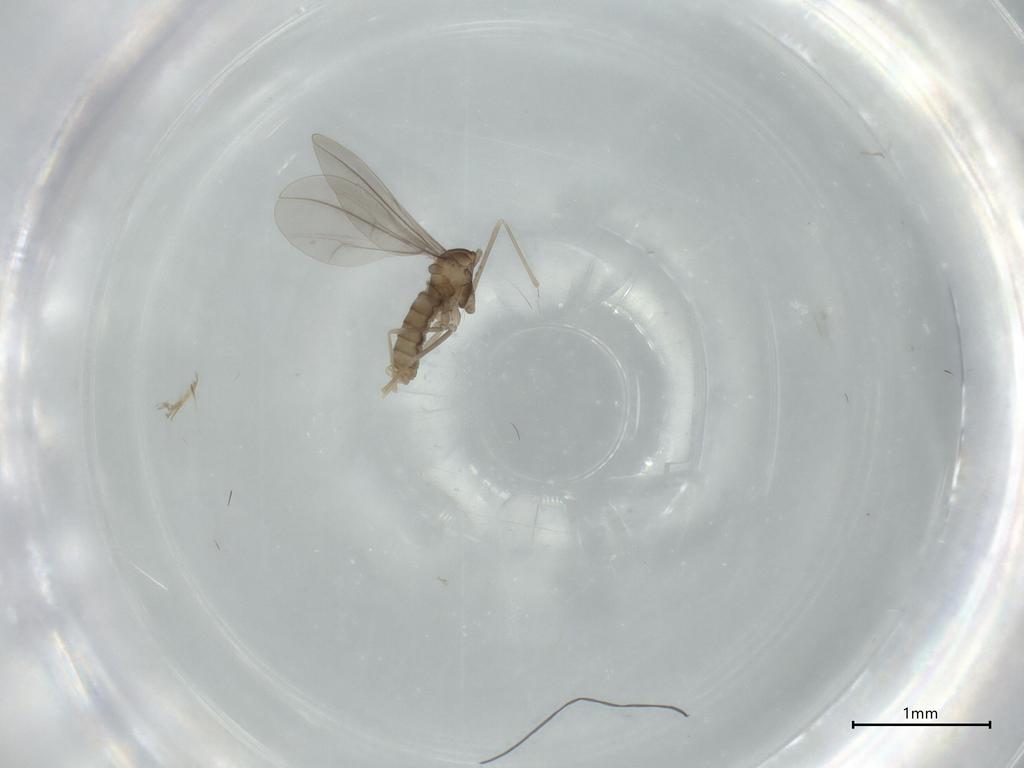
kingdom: Animalia
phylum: Arthropoda
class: Insecta
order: Diptera
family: Cecidomyiidae
